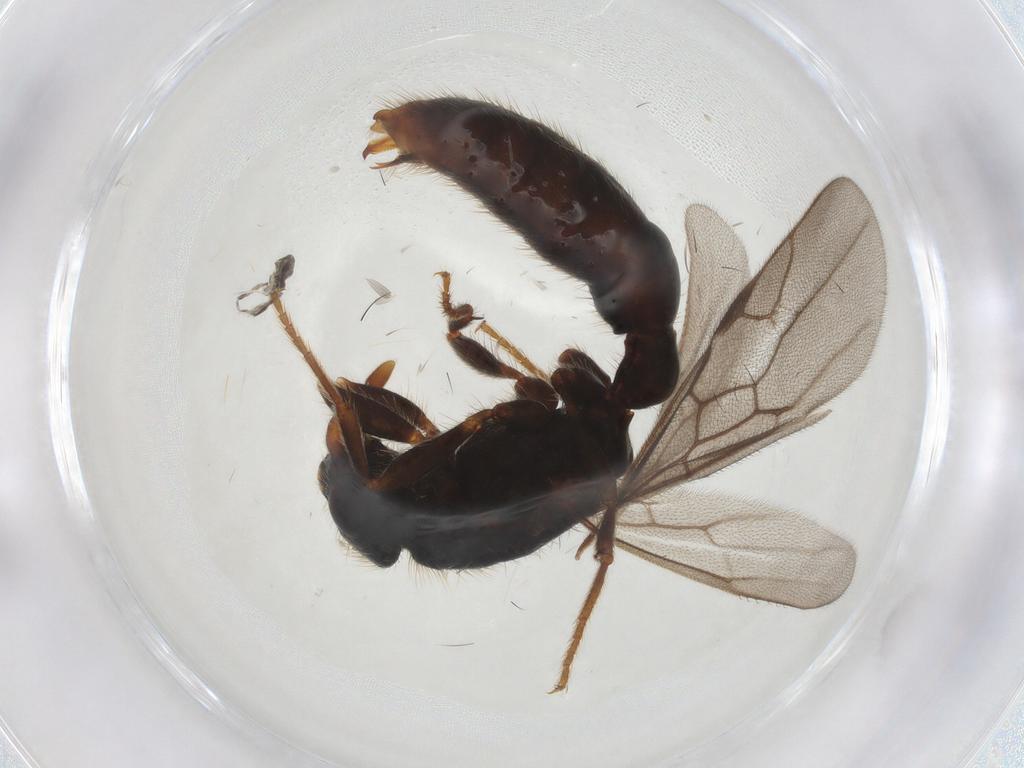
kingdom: Animalia
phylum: Arthropoda
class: Insecta
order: Hymenoptera
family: Formicidae
